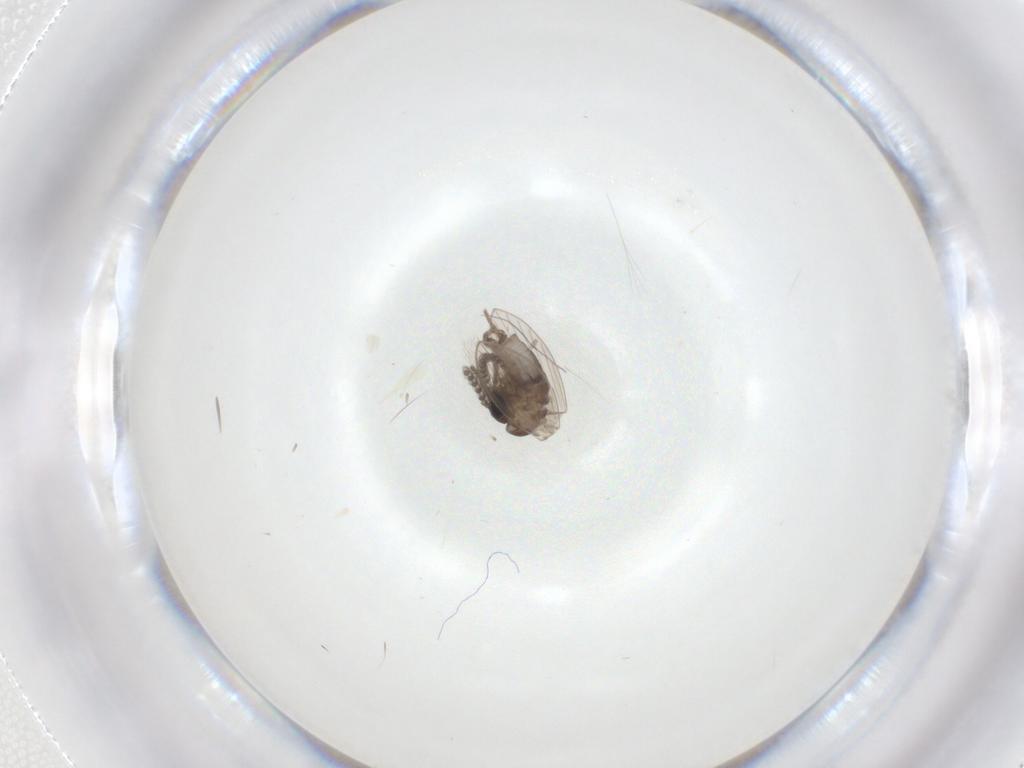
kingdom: Animalia
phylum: Arthropoda
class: Insecta
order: Diptera
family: Psychodidae
